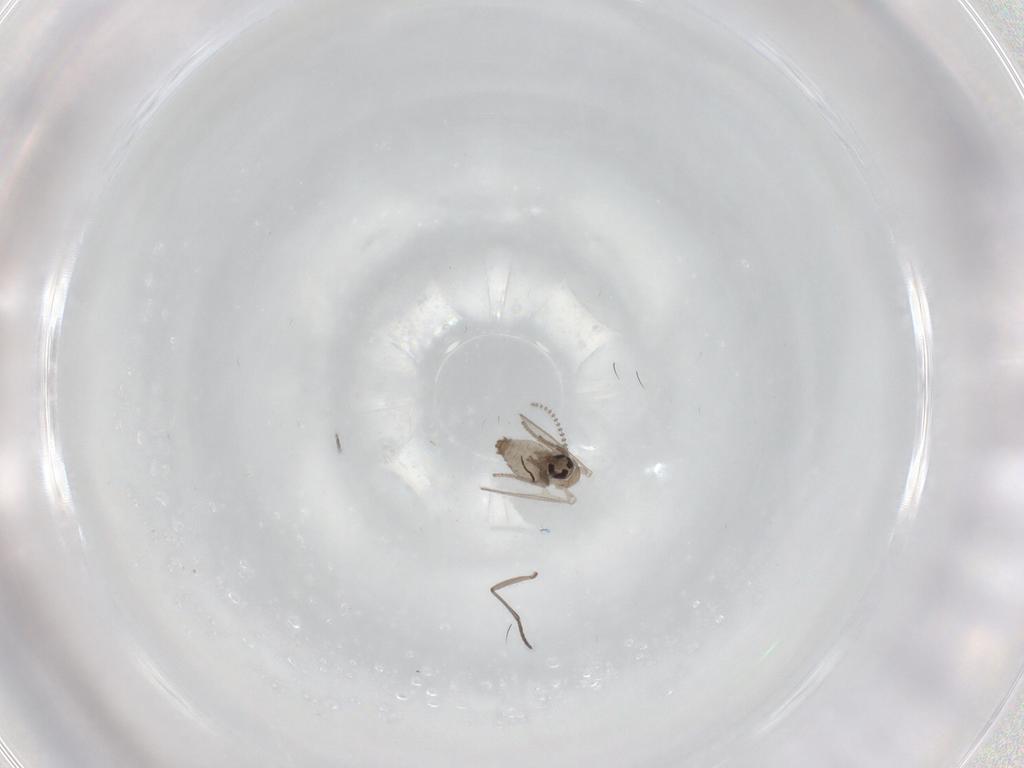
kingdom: Animalia
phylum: Arthropoda
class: Insecta
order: Diptera
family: Psychodidae
